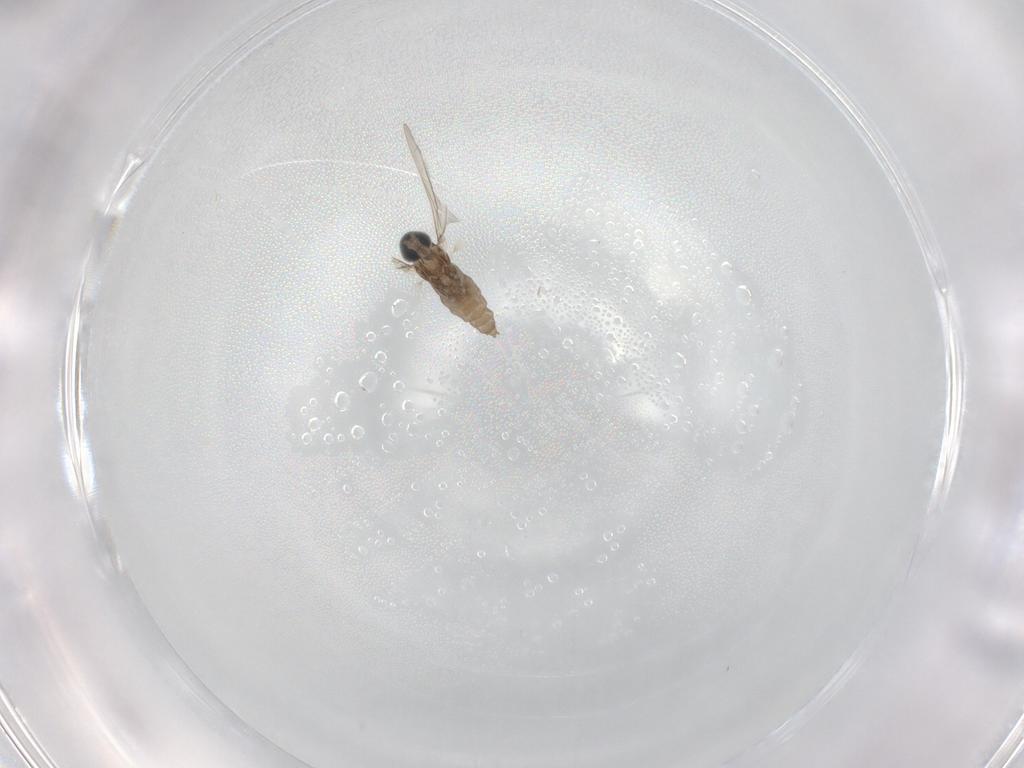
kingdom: Animalia
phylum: Arthropoda
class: Insecta
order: Diptera
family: Cecidomyiidae
